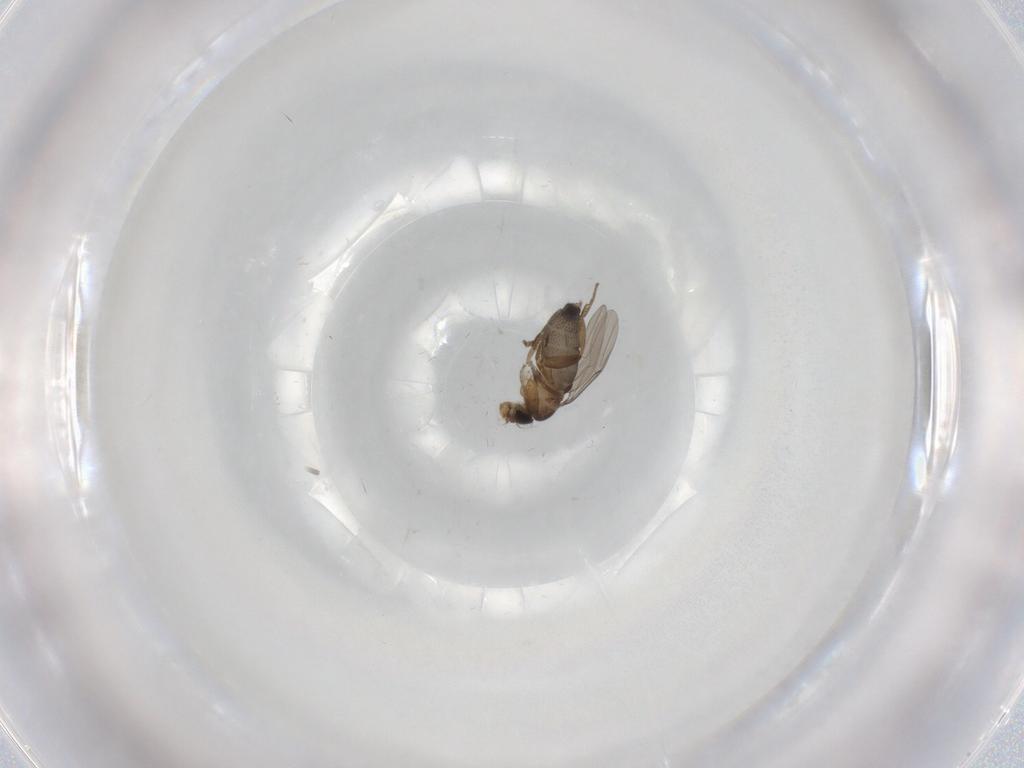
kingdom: Animalia
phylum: Arthropoda
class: Insecta
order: Diptera
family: Phoridae
